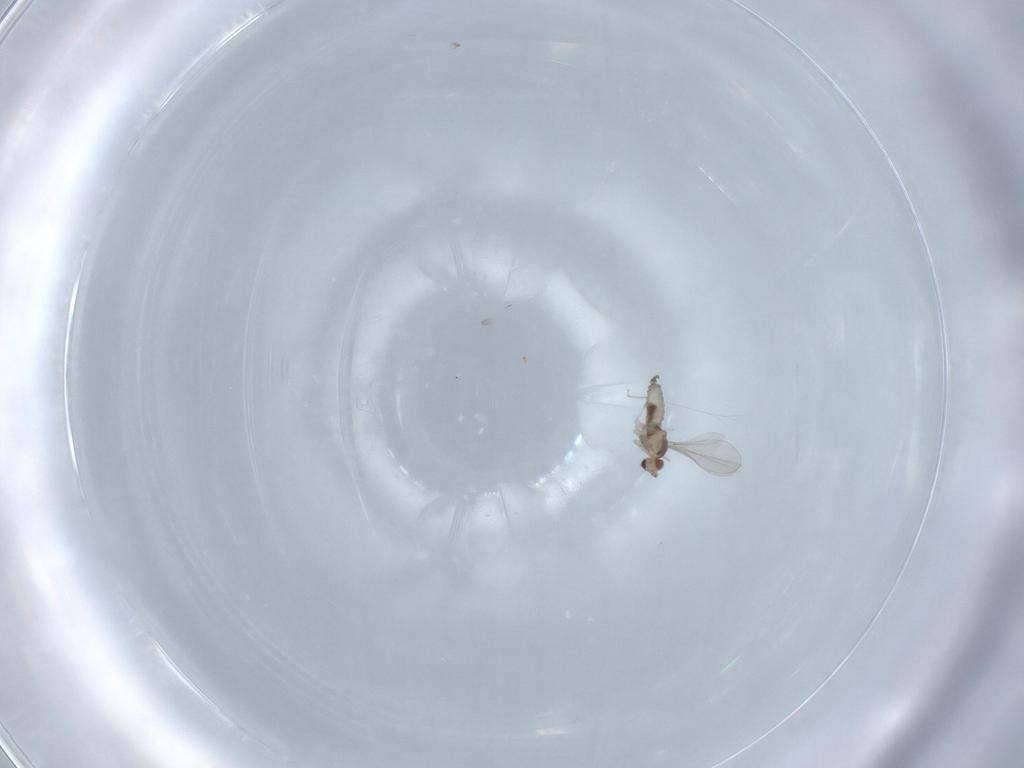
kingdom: Animalia
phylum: Arthropoda
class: Insecta
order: Diptera
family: Cecidomyiidae
